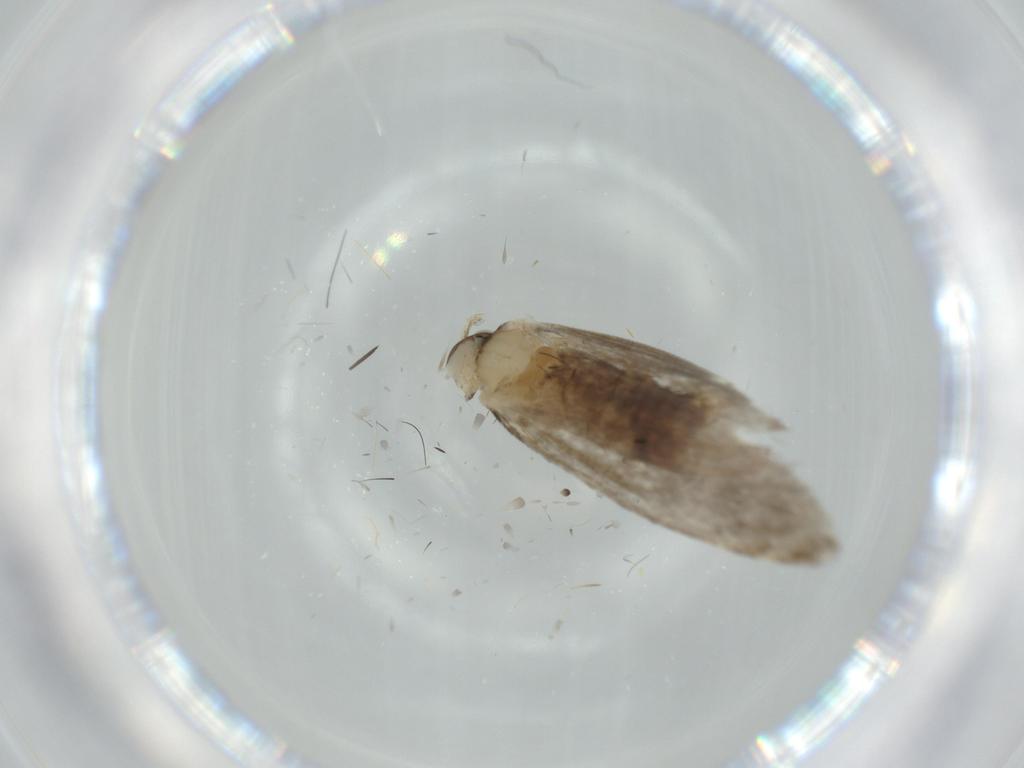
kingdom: Animalia
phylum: Arthropoda
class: Insecta
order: Lepidoptera
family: Tineidae
